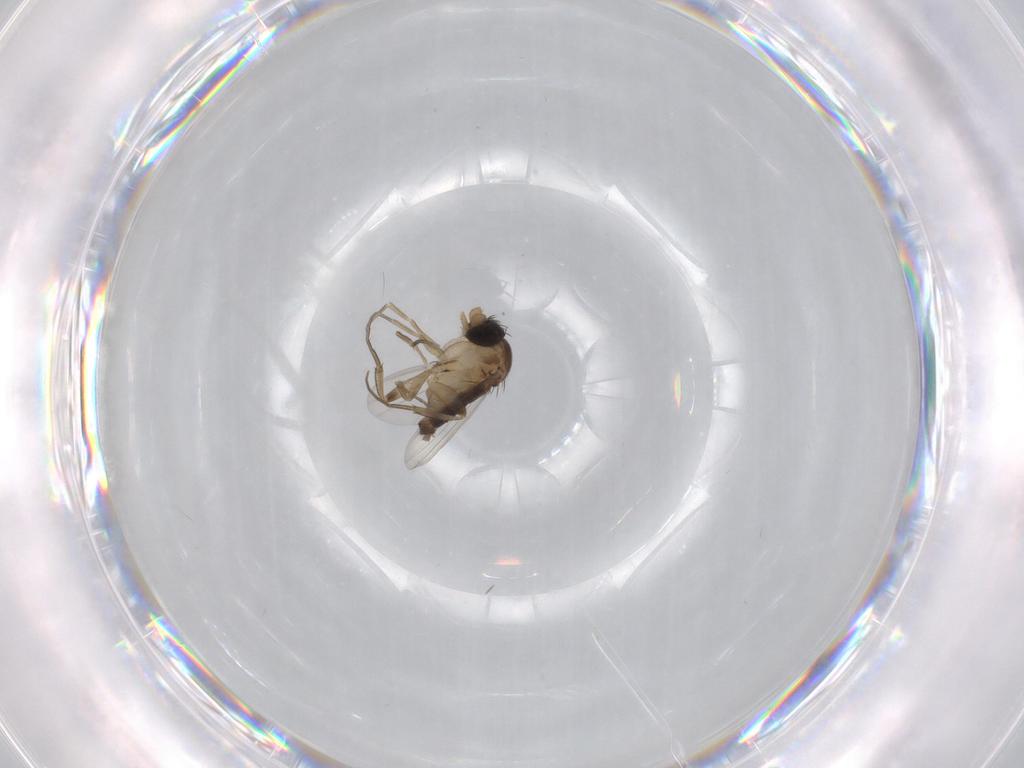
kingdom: Animalia
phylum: Arthropoda
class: Insecta
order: Diptera
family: Phoridae
